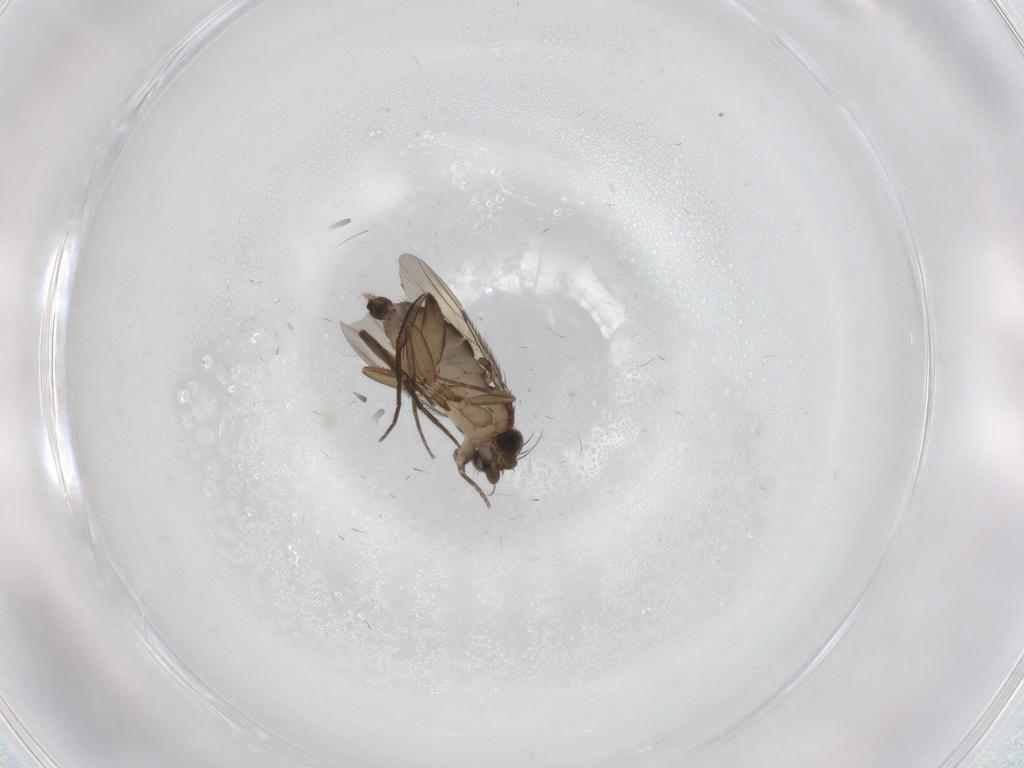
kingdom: Animalia
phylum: Arthropoda
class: Insecta
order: Diptera
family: Phoridae
